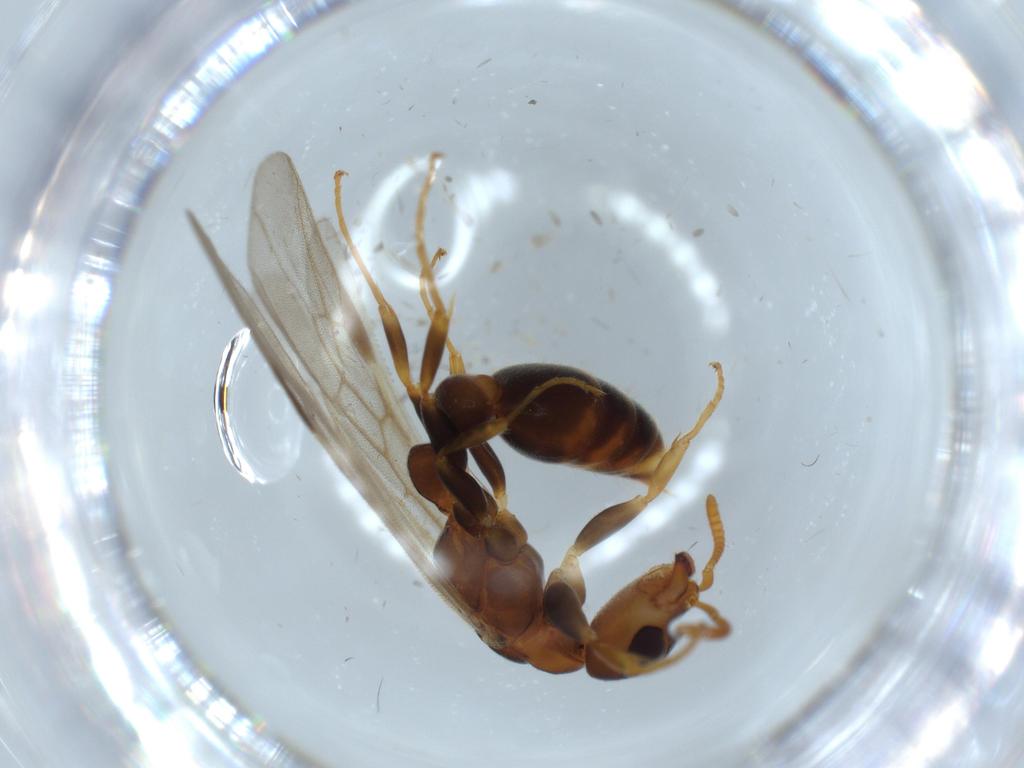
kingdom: Animalia
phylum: Arthropoda
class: Insecta
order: Hymenoptera
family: Formicidae
